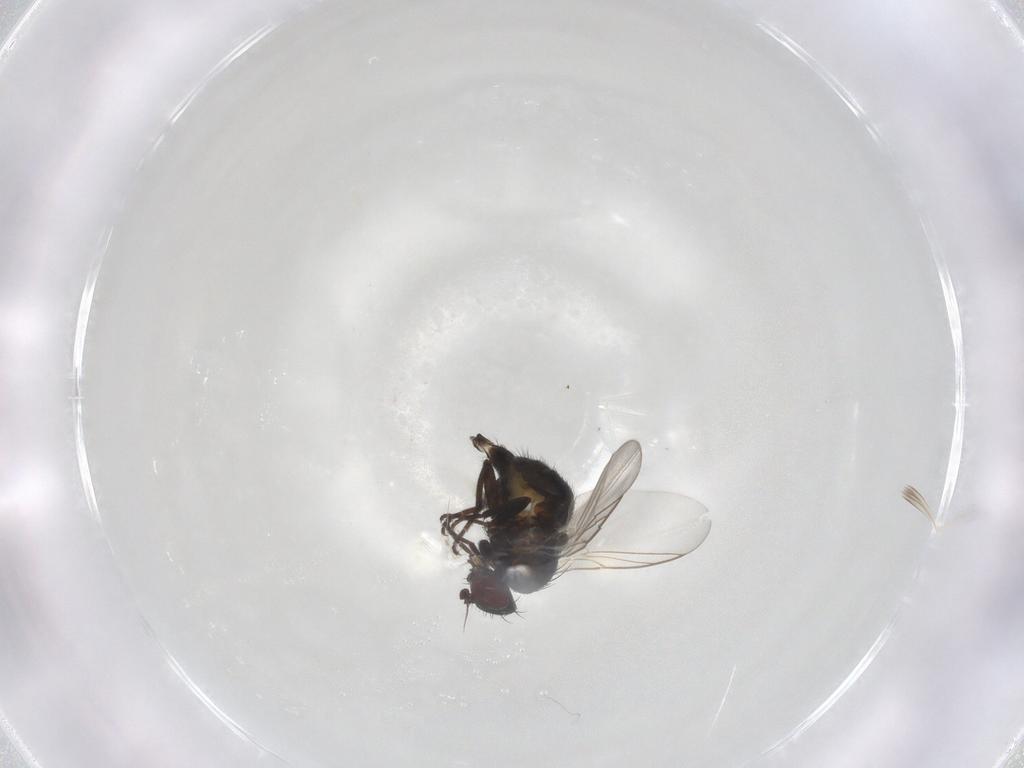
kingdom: Animalia
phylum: Arthropoda
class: Insecta
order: Diptera
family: Agromyzidae
